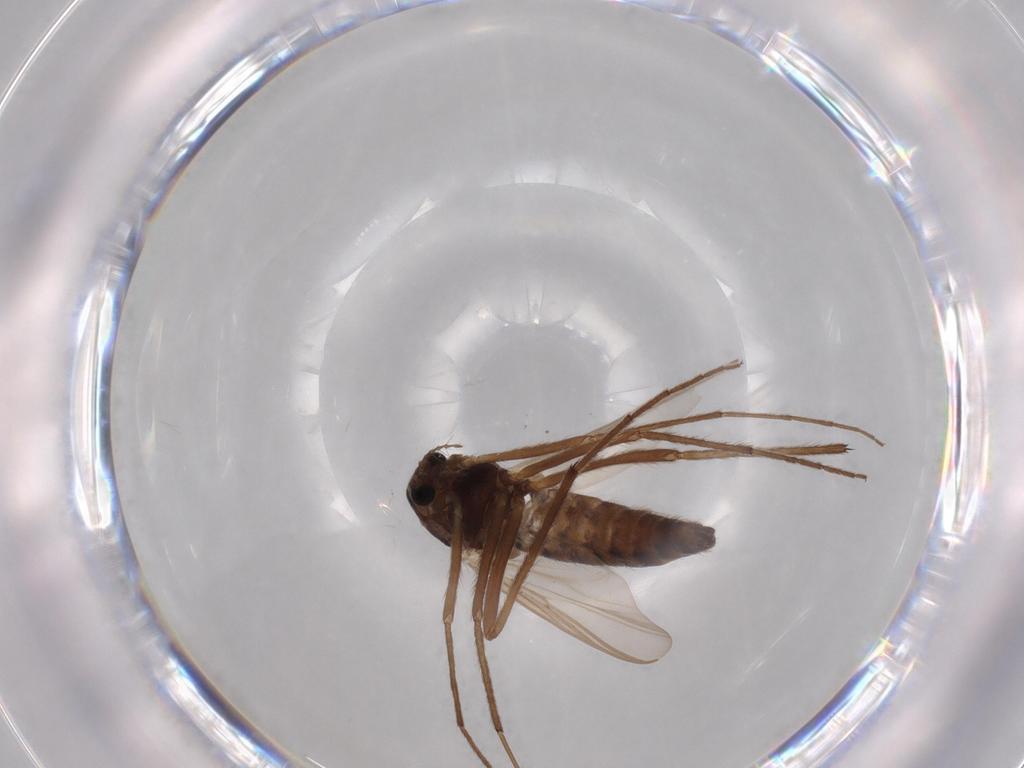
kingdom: Animalia
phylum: Arthropoda
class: Insecta
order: Diptera
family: Psychodidae
